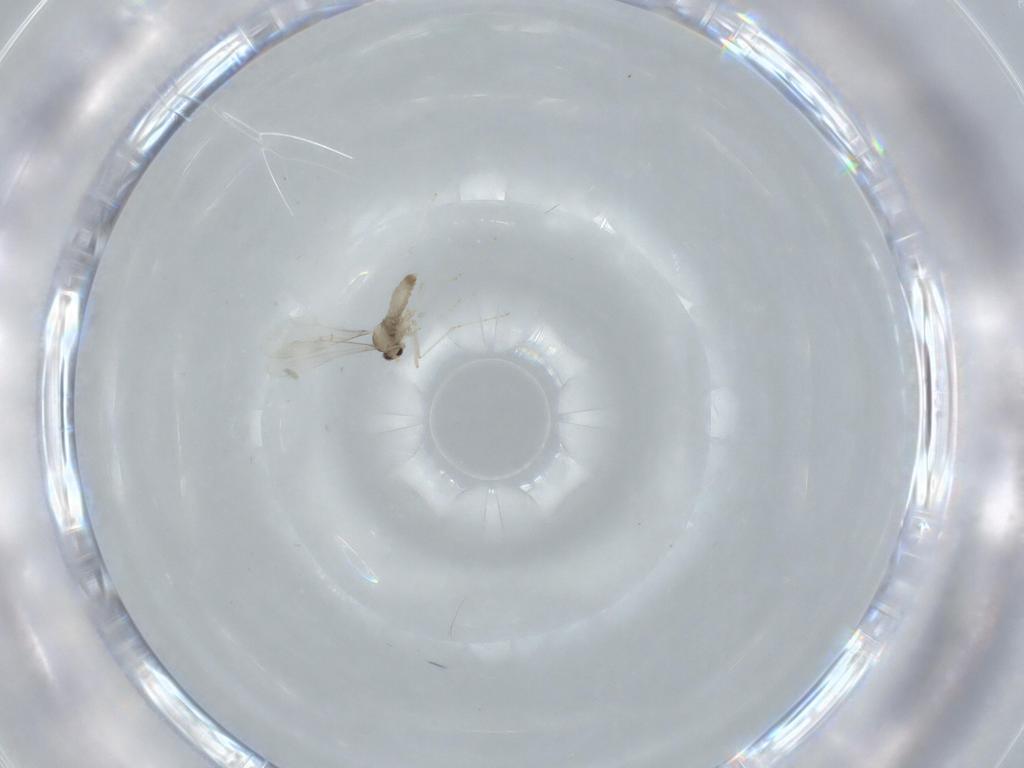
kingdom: Animalia
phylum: Arthropoda
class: Insecta
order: Diptera
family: Cecidomyiidae
